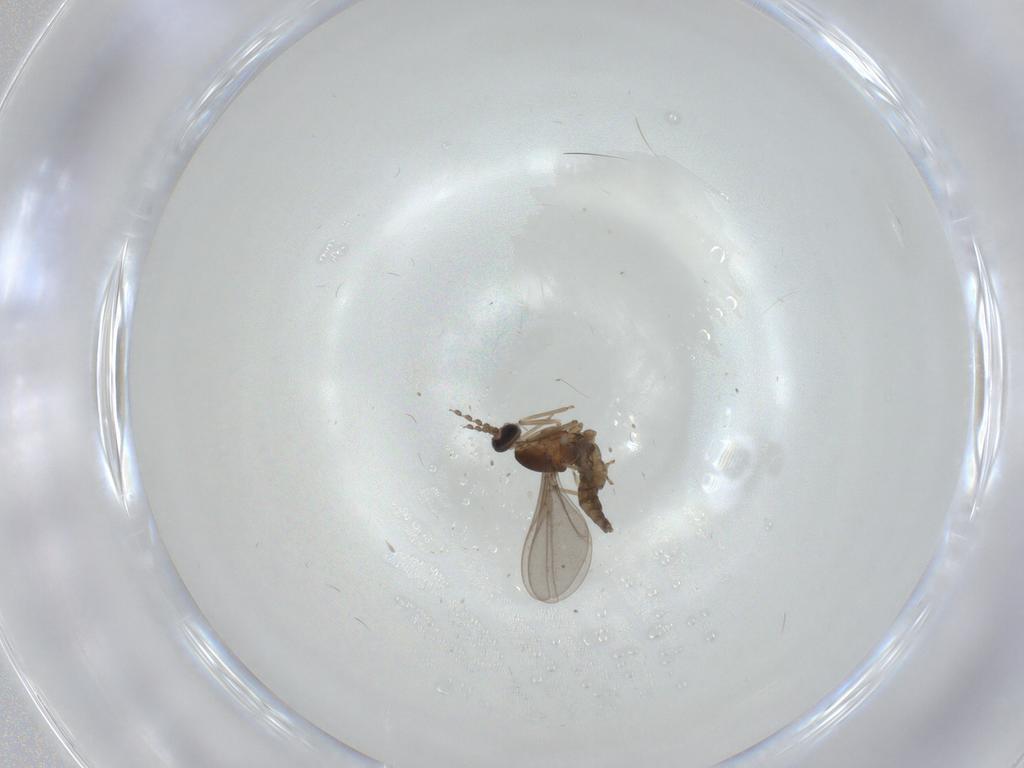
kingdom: Animalia
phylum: Arthropoda
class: Insecta
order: Diptera
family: Cecidomyiidae
